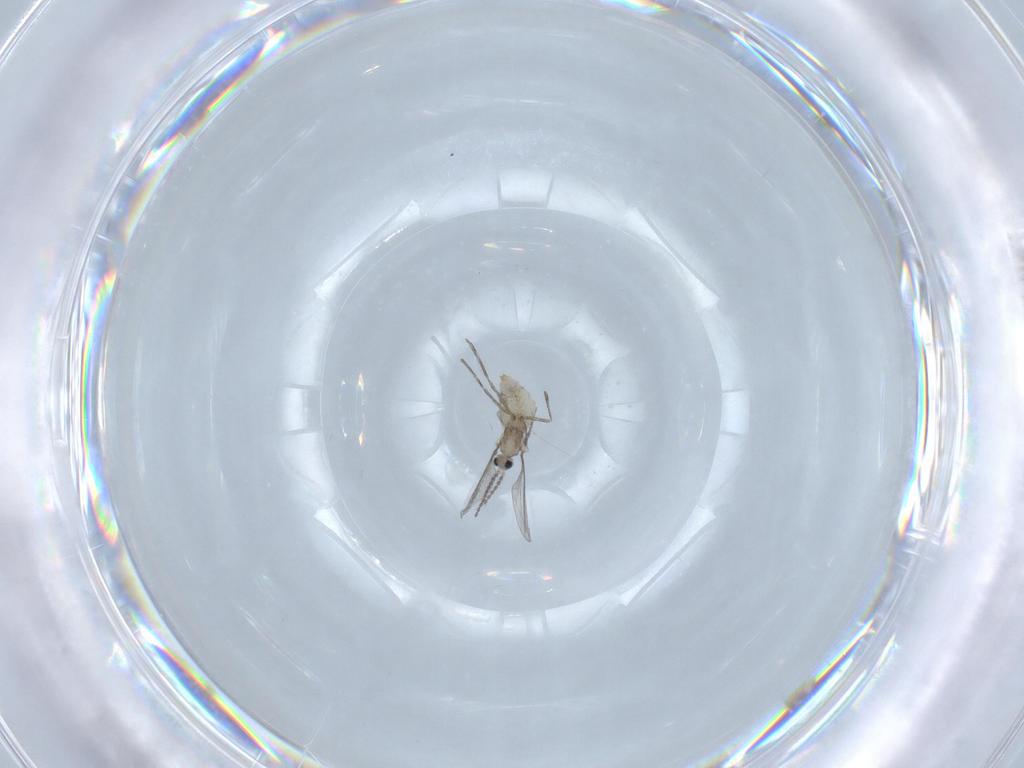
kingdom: Animalia
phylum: Arthropoda
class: Insecta
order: Diptera
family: Cecidomyiidae
